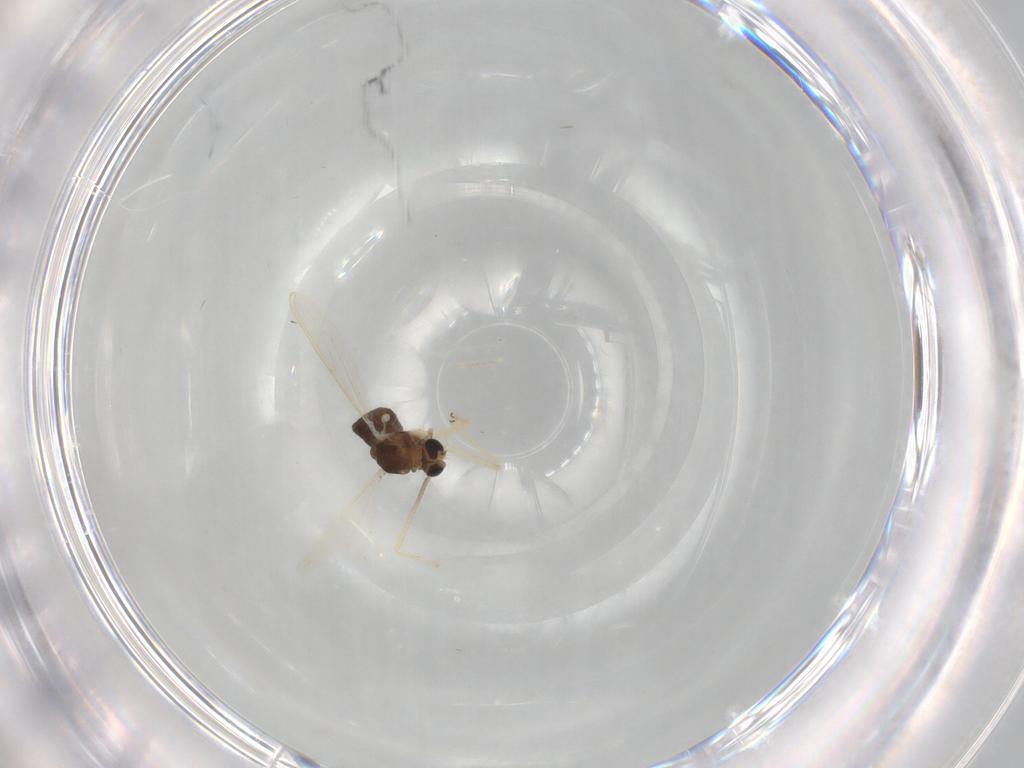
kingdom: Animalia
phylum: Arthropoda
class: Insecta
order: Diptera
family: Chironomidae
